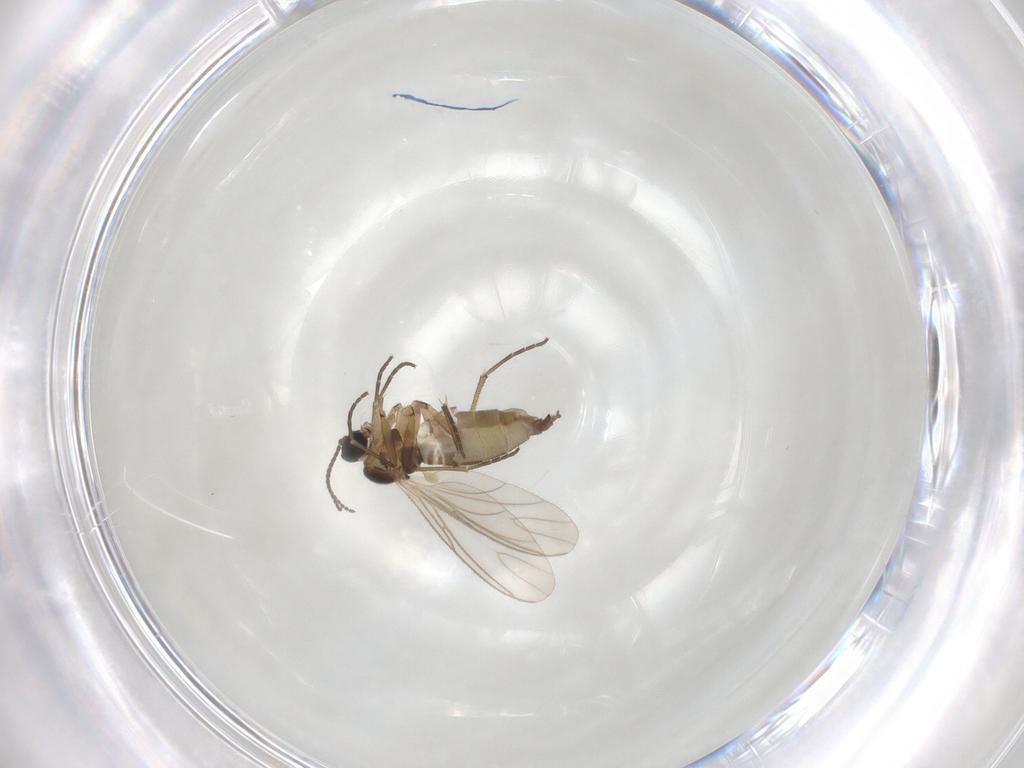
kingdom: Animalia
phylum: Arthropoda
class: Insecta
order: Diptera
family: Chironomidae
